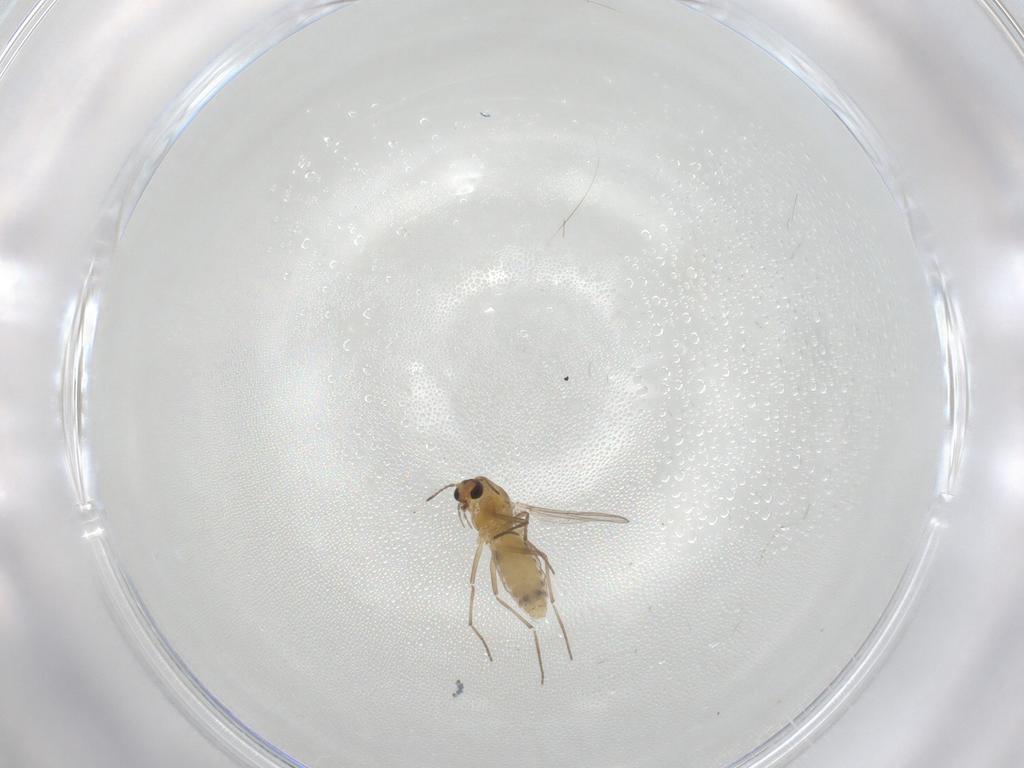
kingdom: Animalia
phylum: Arthropoda
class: Insecta
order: Diptera
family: Cecidomyiidae
